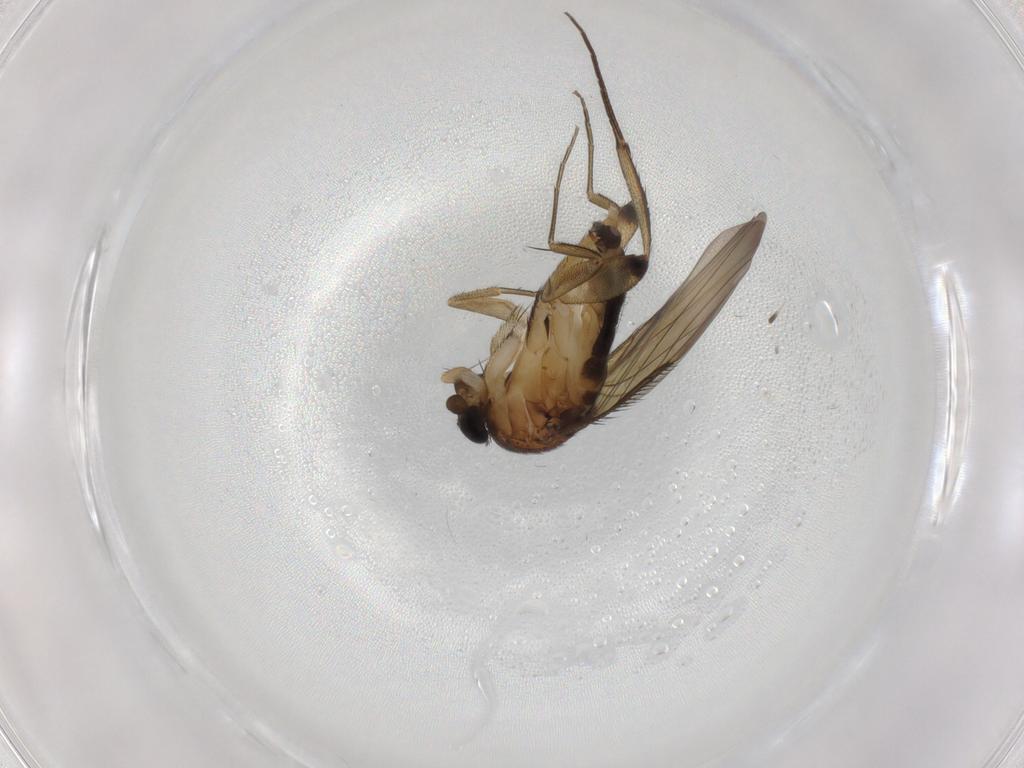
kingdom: Animalia
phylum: Arthropoda
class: Insecta
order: Diptera
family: Phoridae
